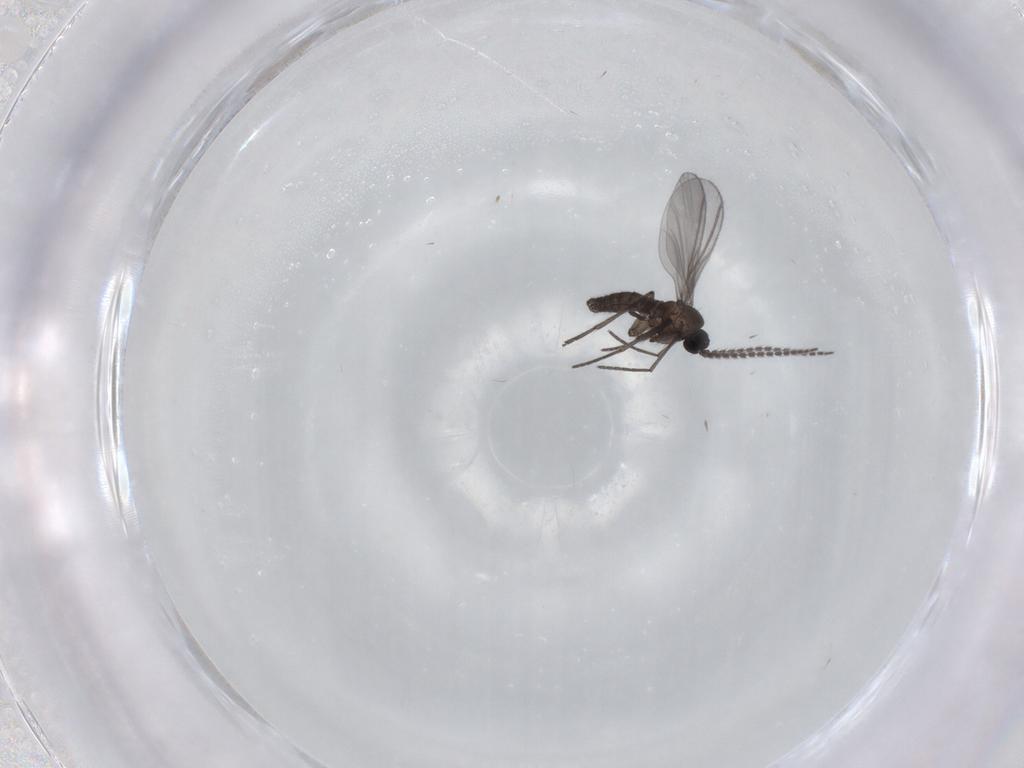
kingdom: Animalia
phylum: Arthropoda
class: Insecta
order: Diptera
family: Chironomidae
